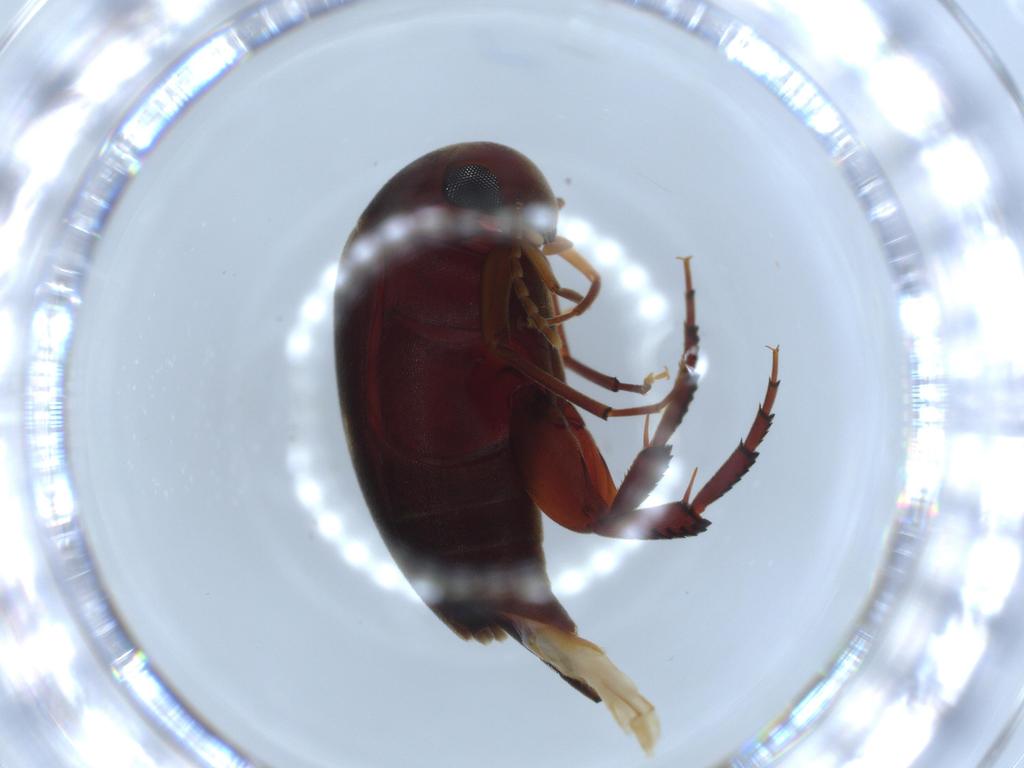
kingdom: Animalia
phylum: Arthropoda
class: Insecta
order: Coleoptera
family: Mordellidae
